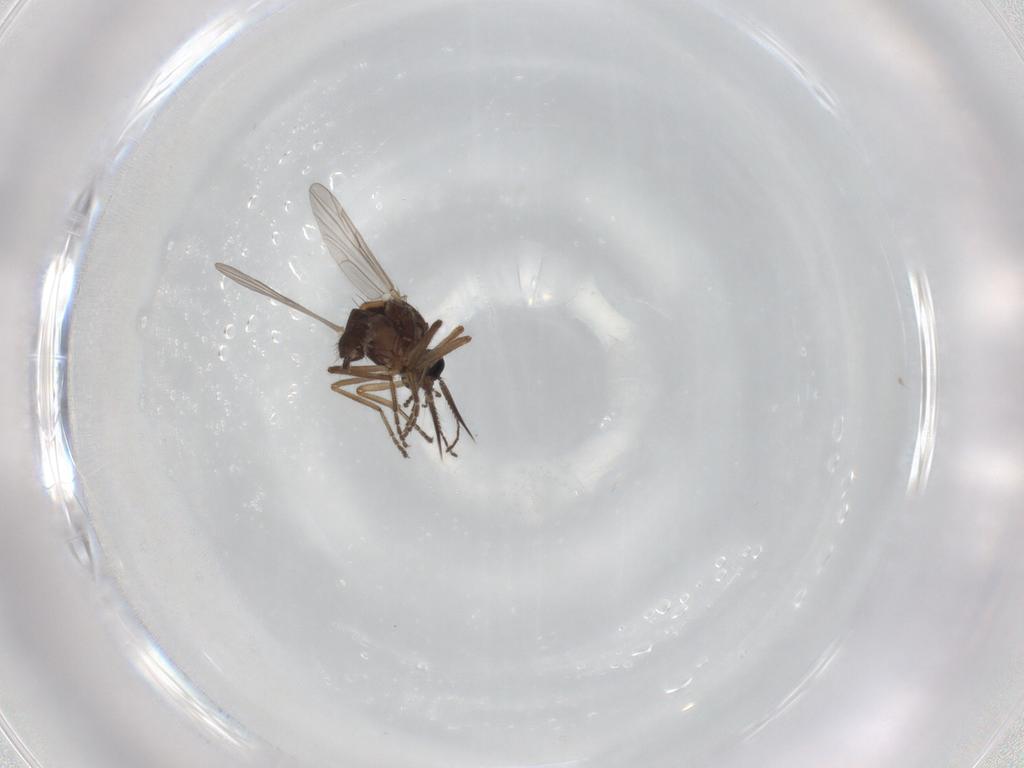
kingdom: Animalia
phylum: Arthropoda
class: Insecta
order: Diptera
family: Ceratopogonidae
